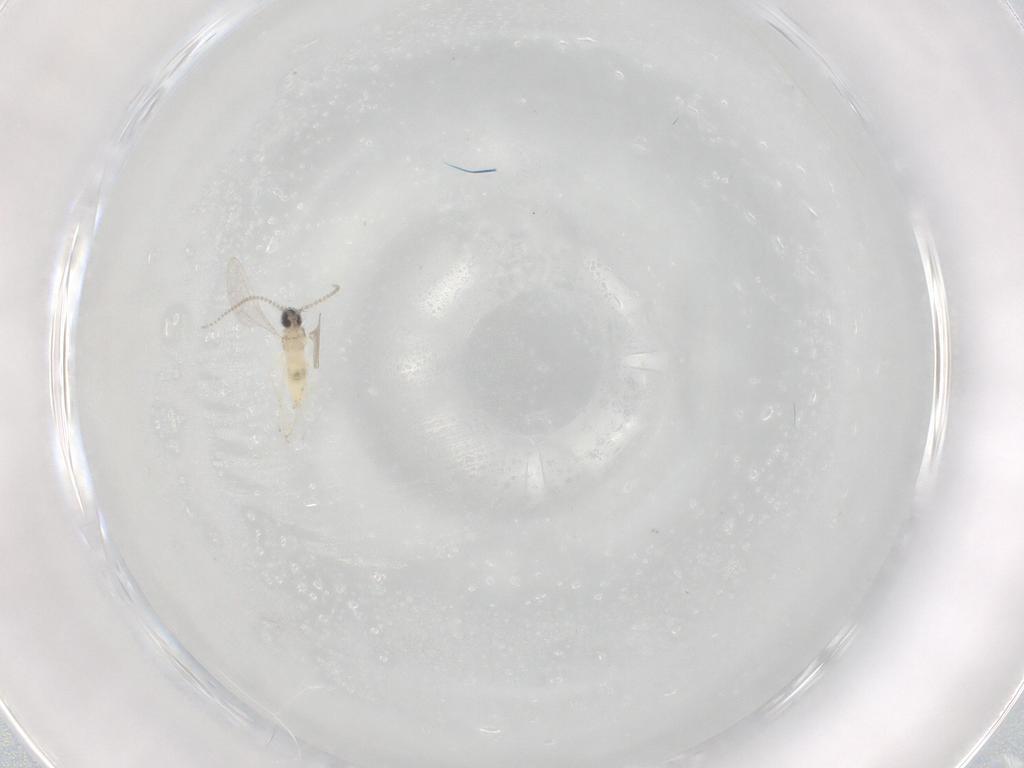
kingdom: Animalia
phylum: Arthropoda
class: Insecta
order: Diptera
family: Cecidomyiidae
